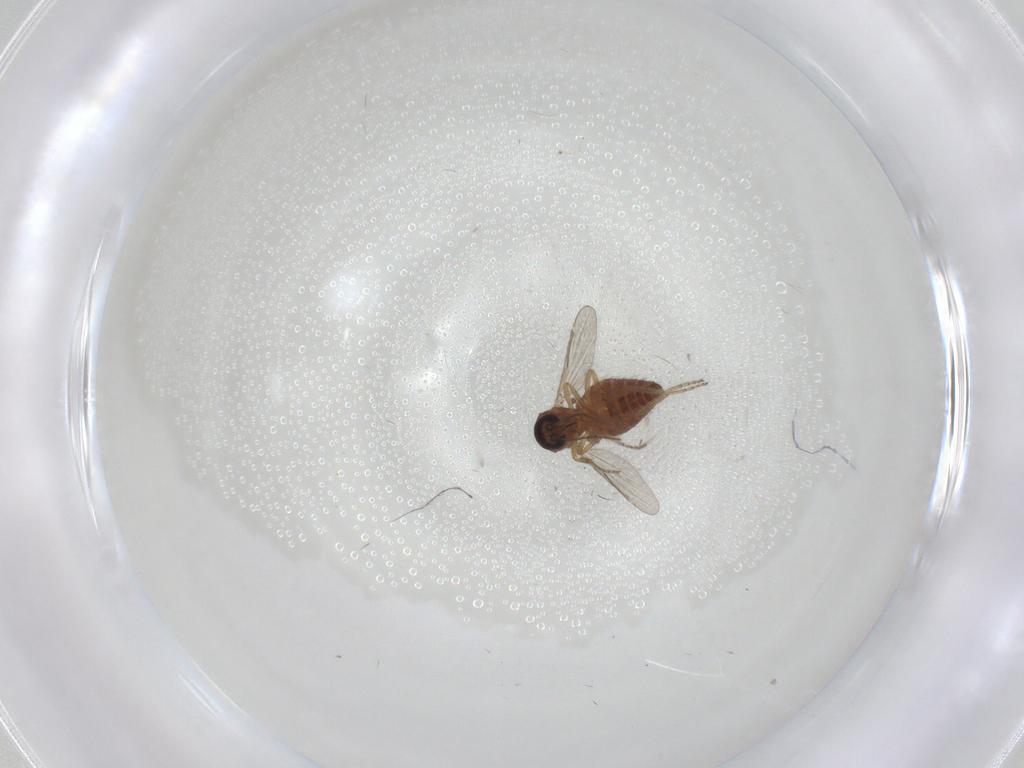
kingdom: Animalia
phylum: Arthropoda
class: Insecta
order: Diptera
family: Ceratopogonidae
